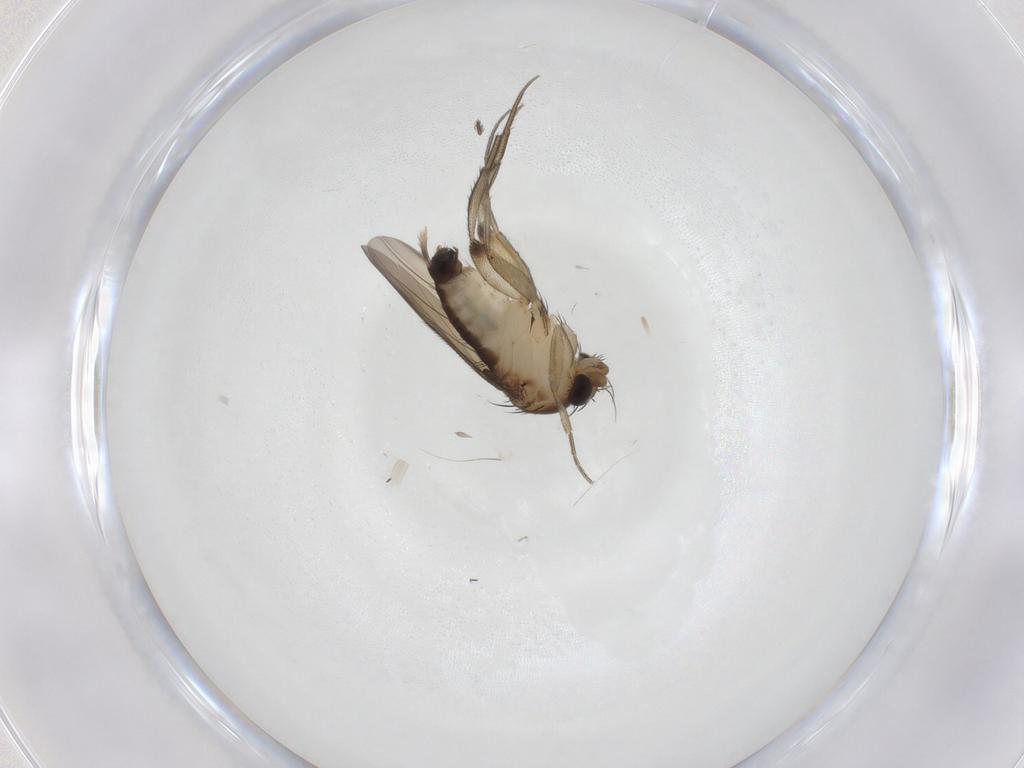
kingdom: Animalia
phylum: Arthropoda
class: Insecta
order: Diptera
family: Phoridae
